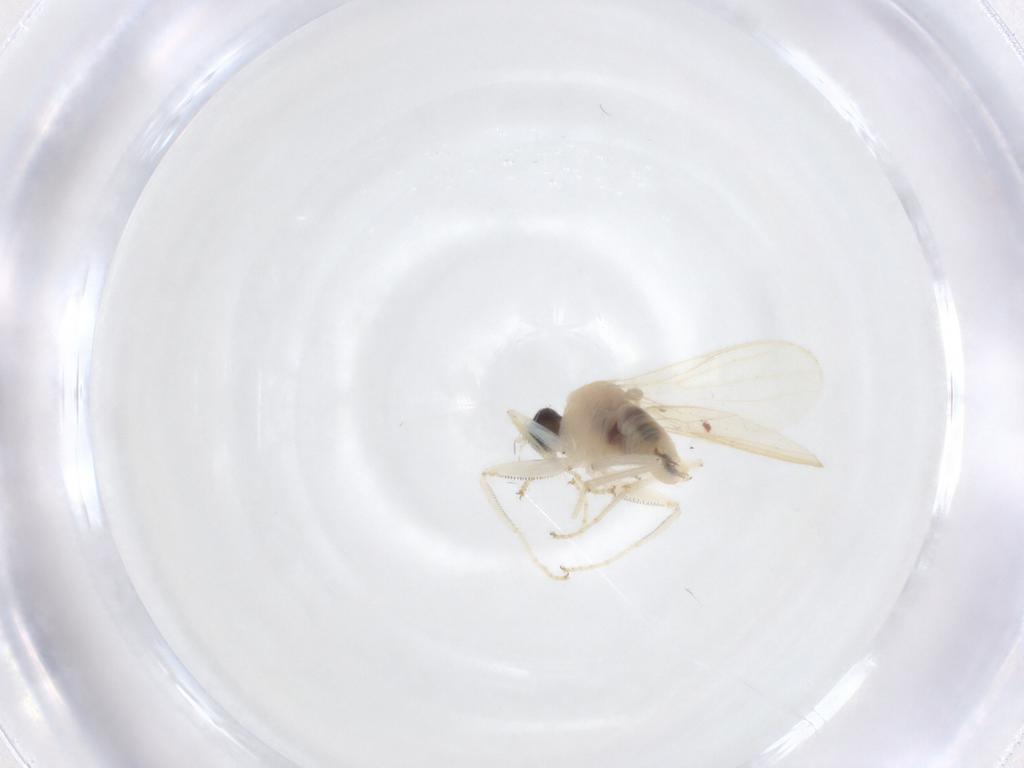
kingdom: Animalia
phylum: Arthropoda
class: Insecta
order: Diptera
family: Hybotidae
